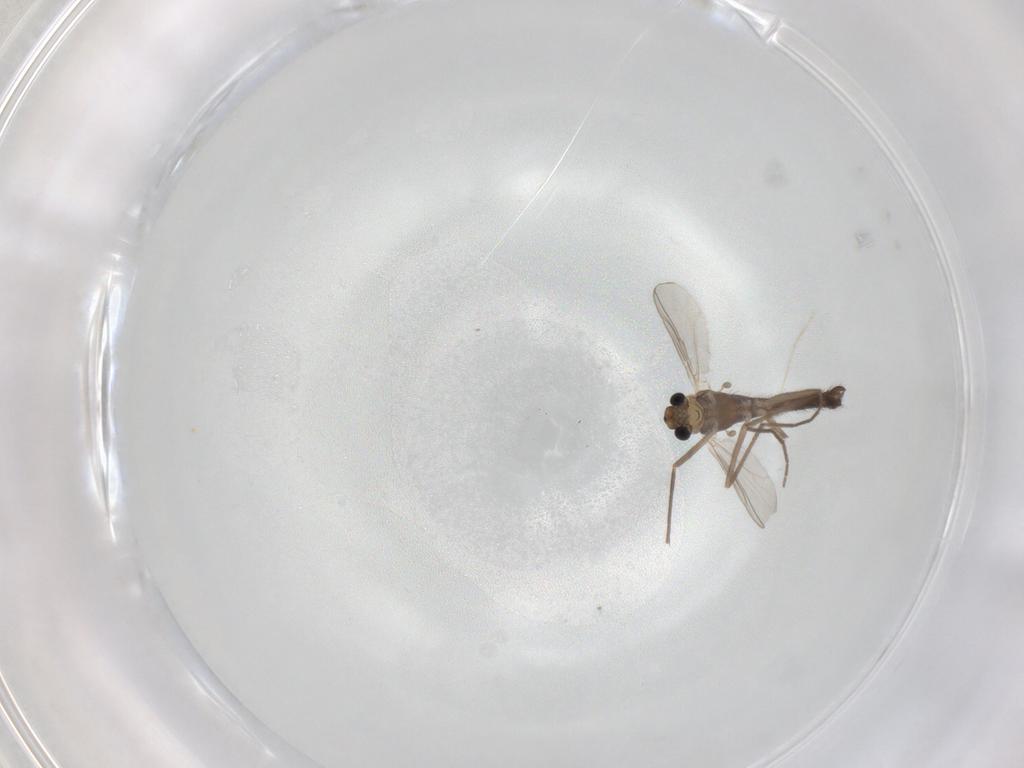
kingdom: Animalia
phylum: Arthropoda
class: Insecta
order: Diptera
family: Chironomidae
